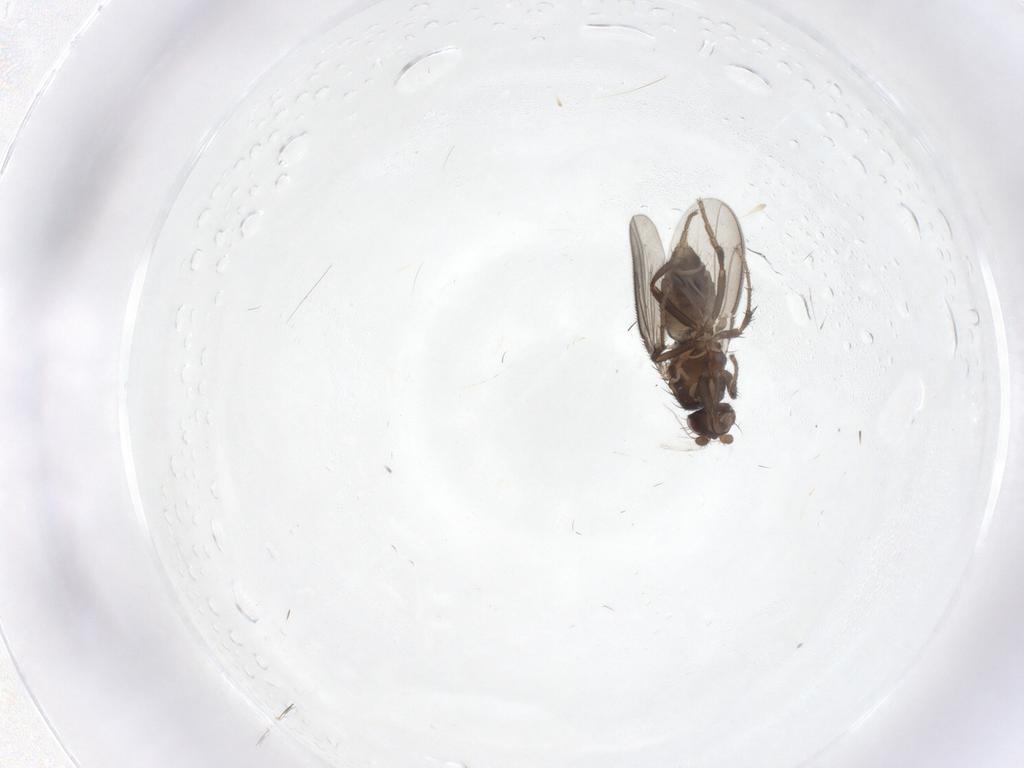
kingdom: Animalia
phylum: Arthropoda
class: Insecta
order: Diptera
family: Sphaeroceridae
